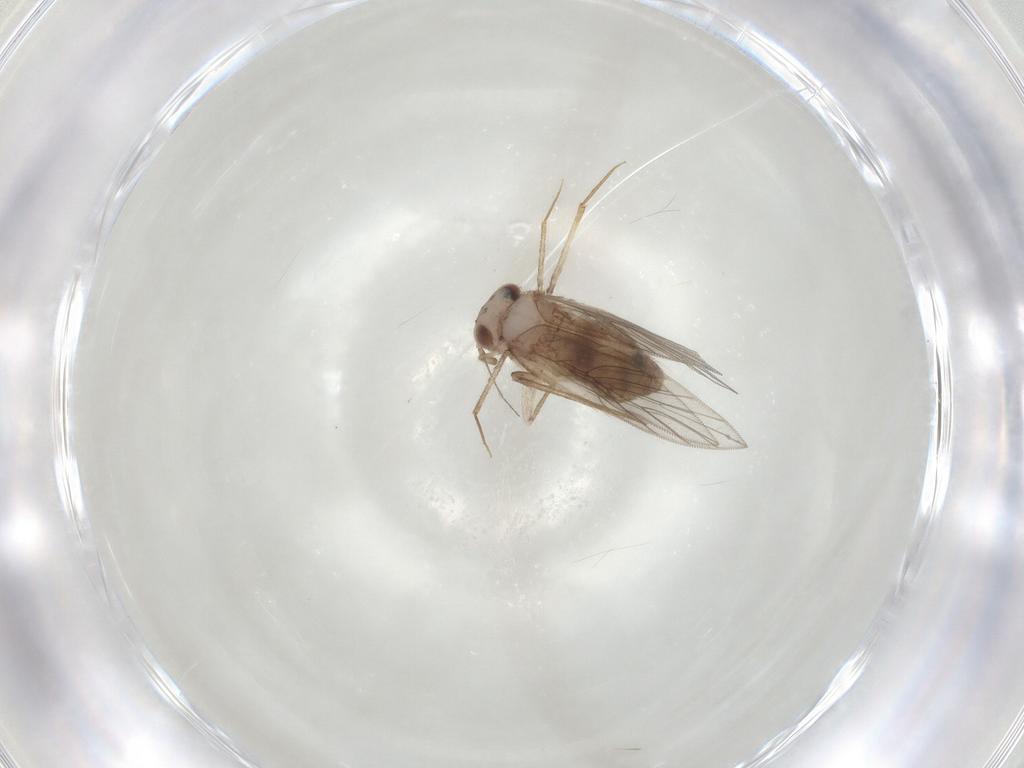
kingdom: Animalia
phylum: Arthropoda
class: Insecta
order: Psocodea
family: Lepidopsocidae
